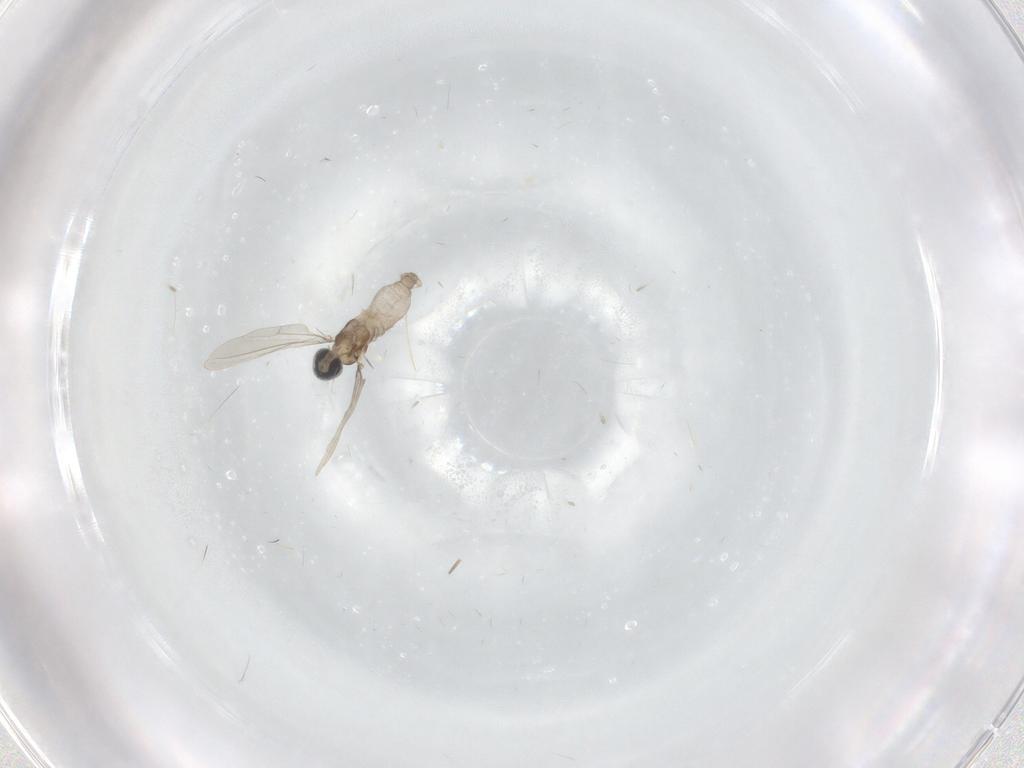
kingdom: Animalia
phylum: Arthropoda
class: Insecta
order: Diptera
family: Cecidomyiidae
